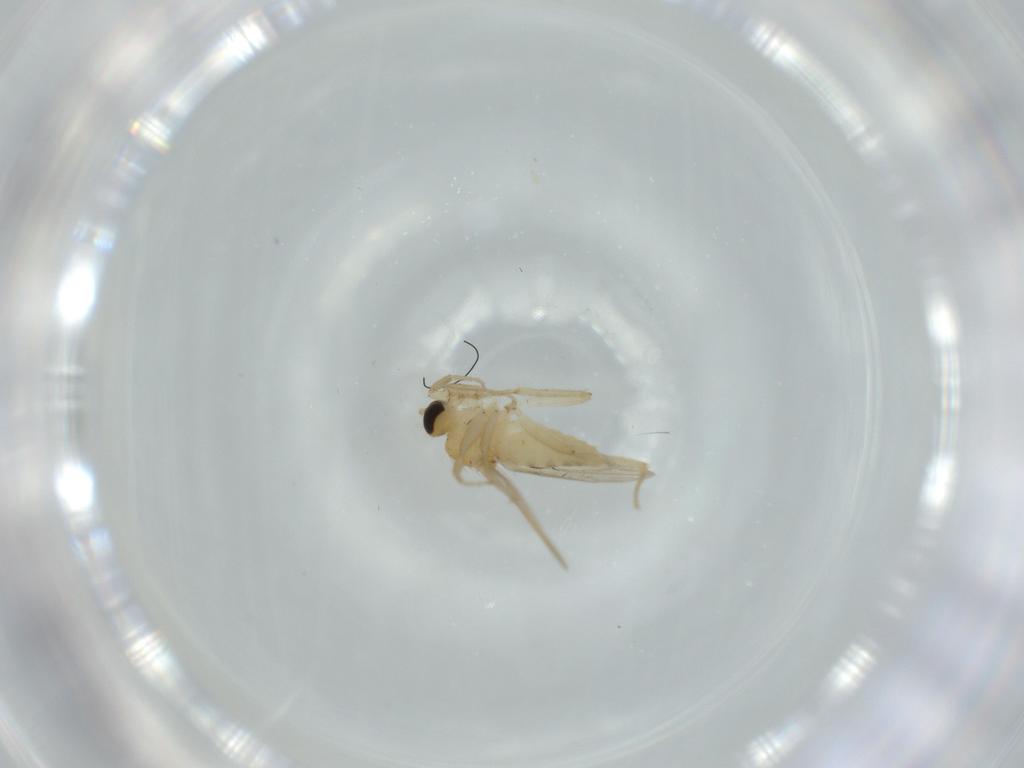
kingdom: Animalia
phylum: Arthropoda
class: Insecta
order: Diptera
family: Hybotidae
